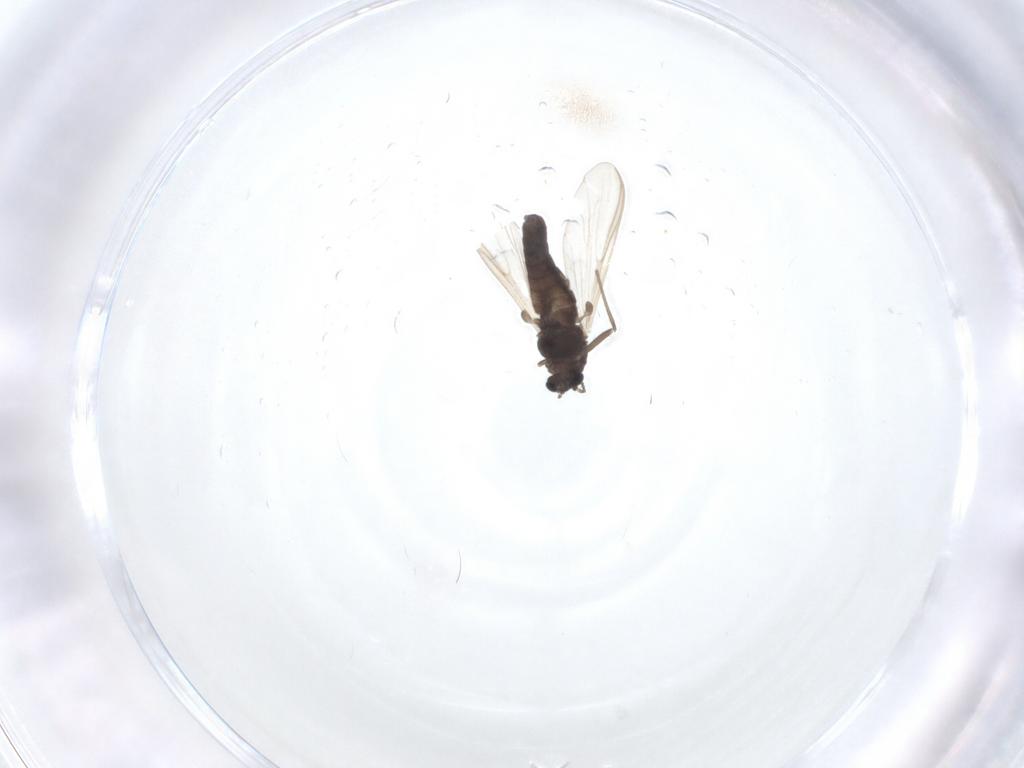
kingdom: Animalia
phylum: Arthropoda
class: Insecta
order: Diptera
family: Chironomidae
